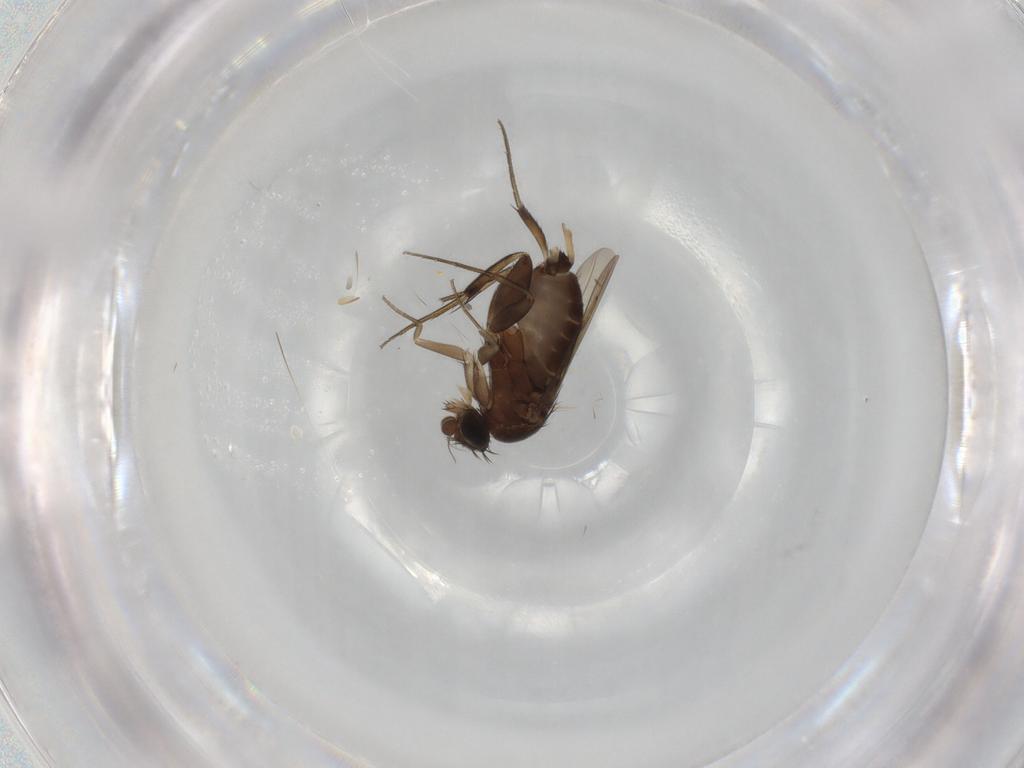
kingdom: Animalia
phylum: Arthropoda
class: Insecta
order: Diptera
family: Phoridae
